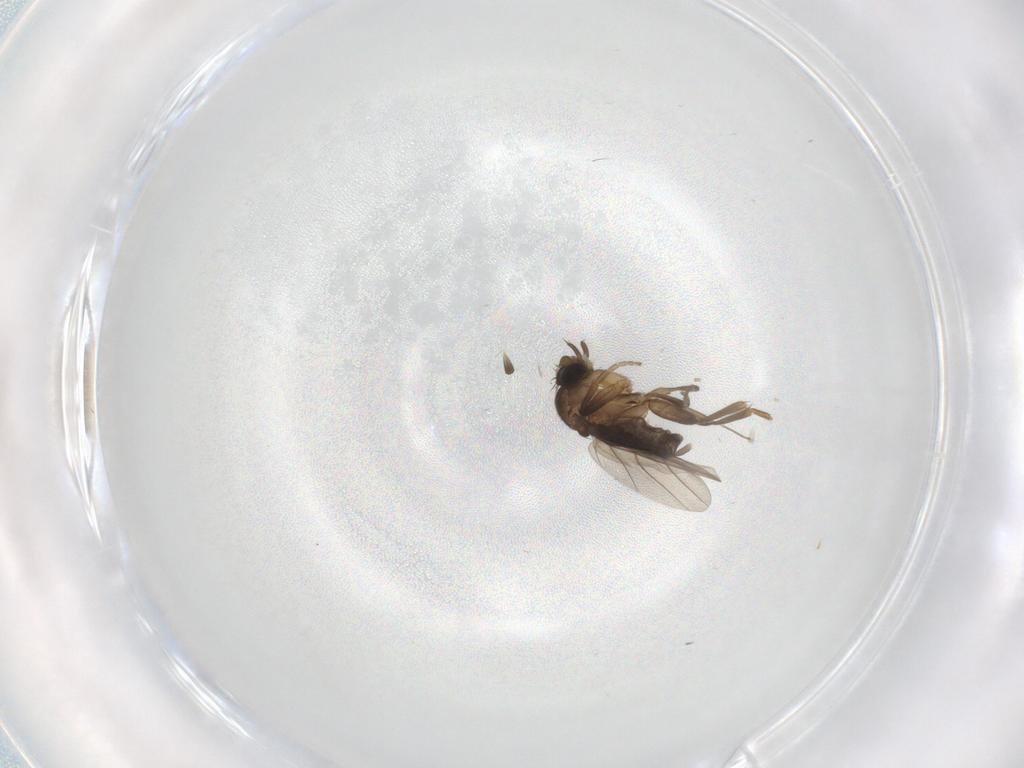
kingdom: Animalia
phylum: Arthropoda
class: Insecta
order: Diptera
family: Phoridae
